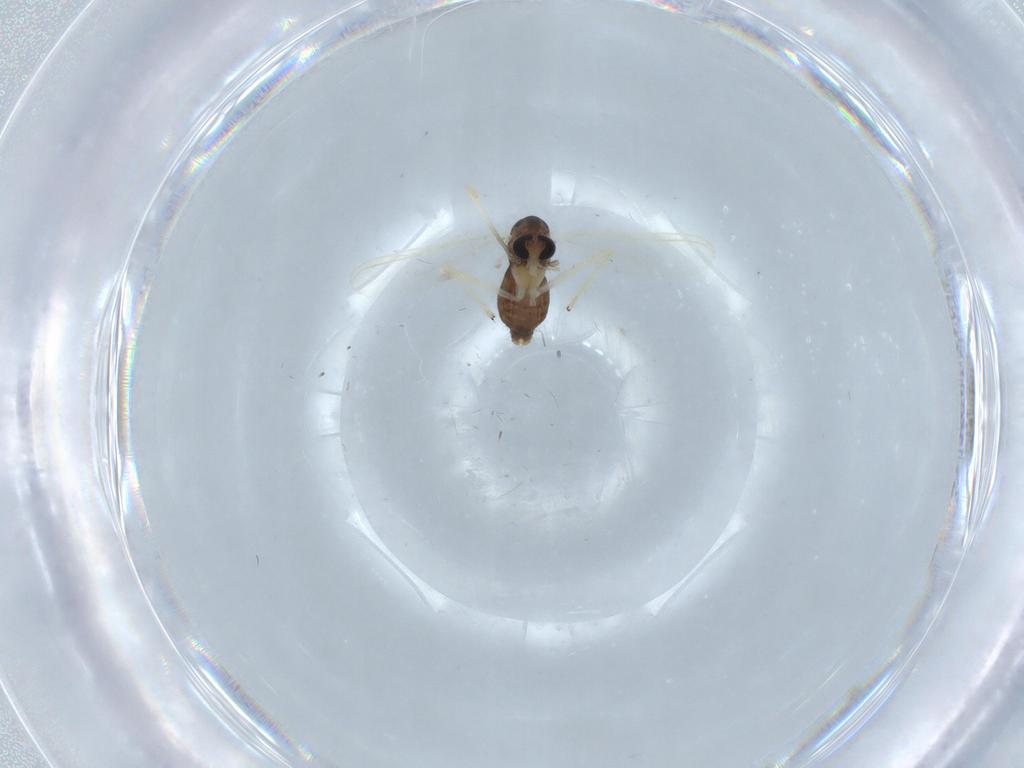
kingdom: Animalia
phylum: Arthropoda
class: Insecta
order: Diptera
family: Chironomidae
